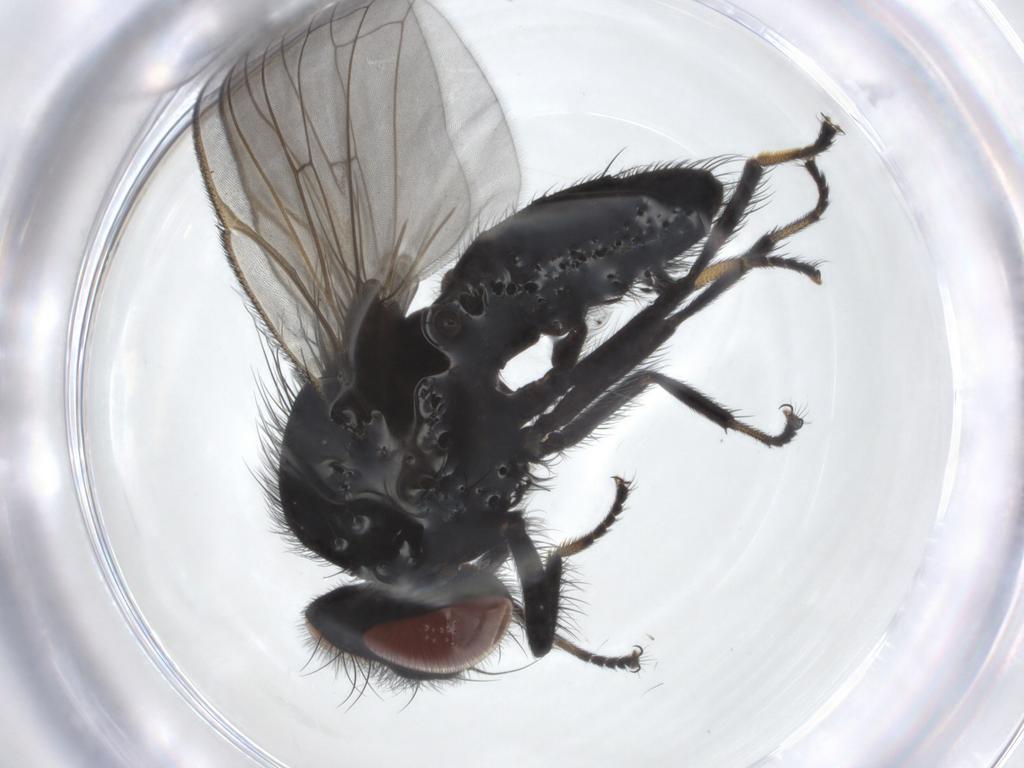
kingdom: Animalia
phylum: Arthropoda
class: Insecta
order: Diptera
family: Lonchaeidae
